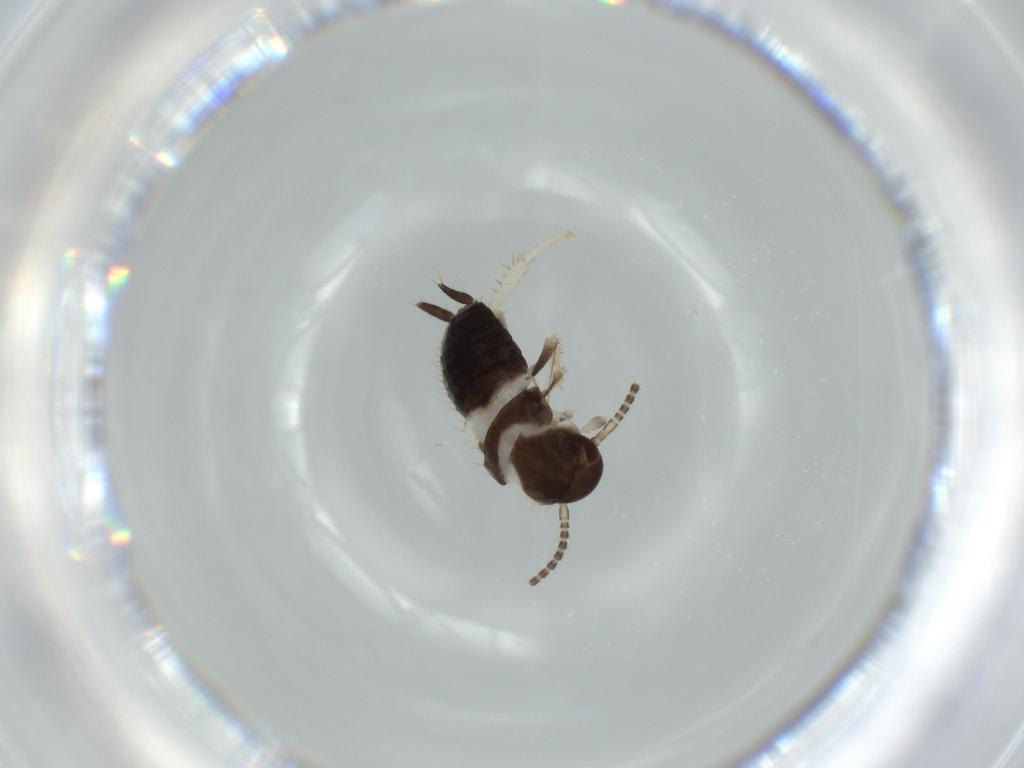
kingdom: Animalia
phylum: Arthropoda
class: Insecta
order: Blattodea
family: Ectobiidae
